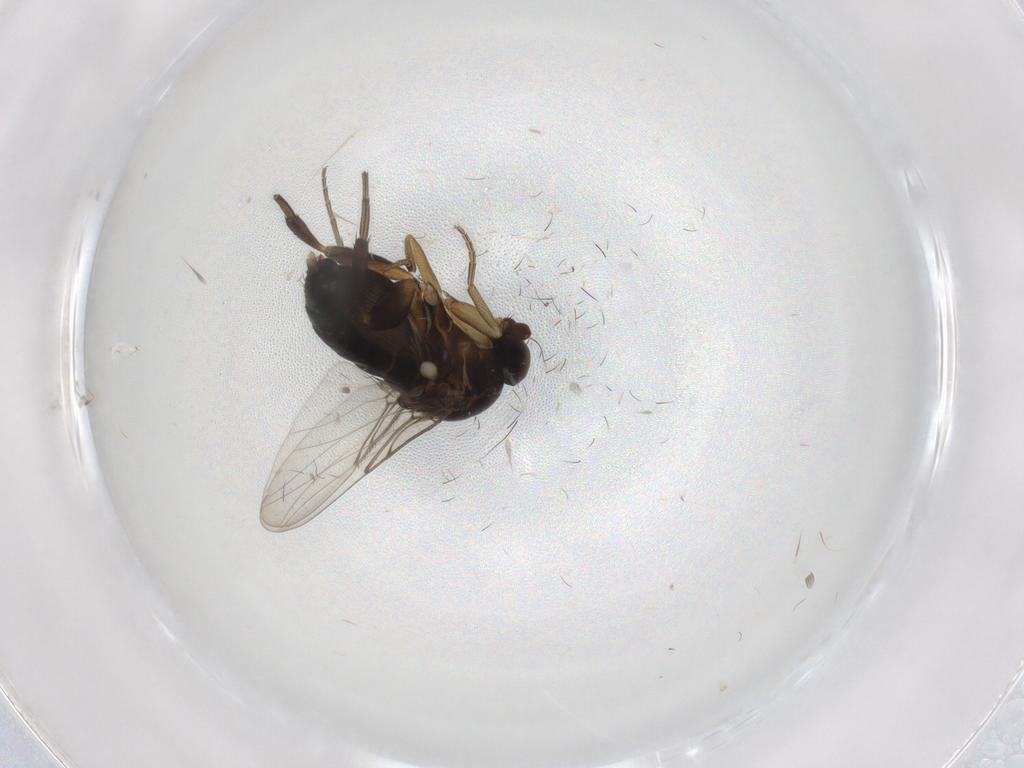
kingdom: Animalia
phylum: Arthropoda
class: Insecta
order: Diptera
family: Phoridae
